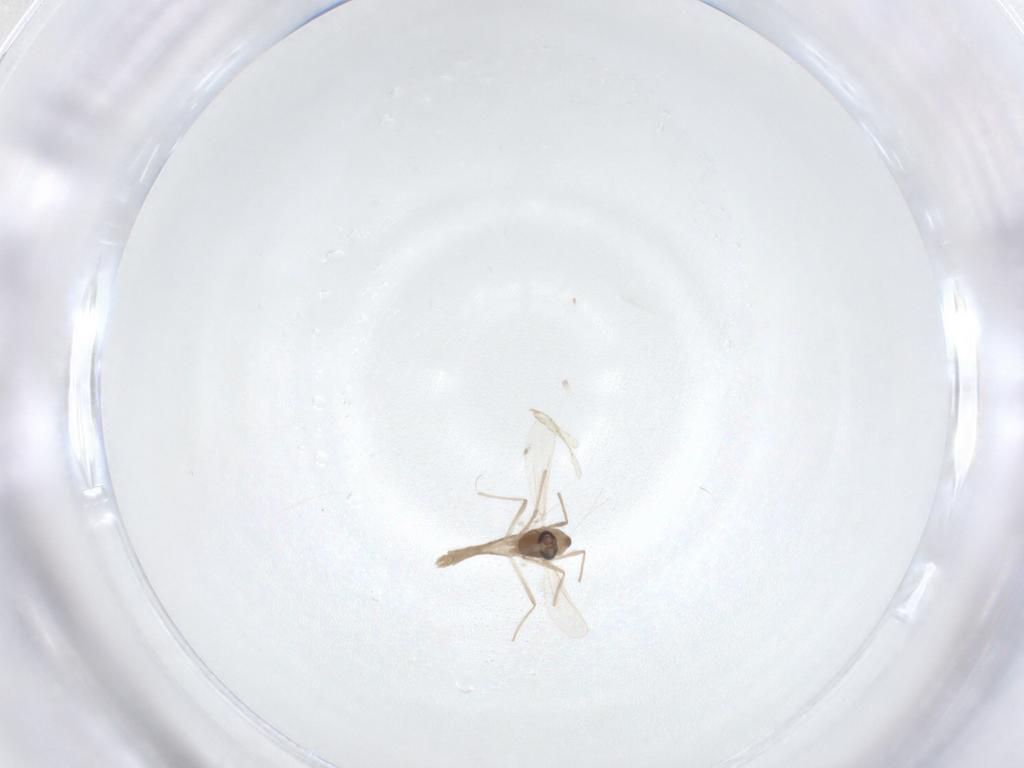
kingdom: Animalia
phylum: Arthropoda
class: Insecta
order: Diptera
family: Chironomidae
